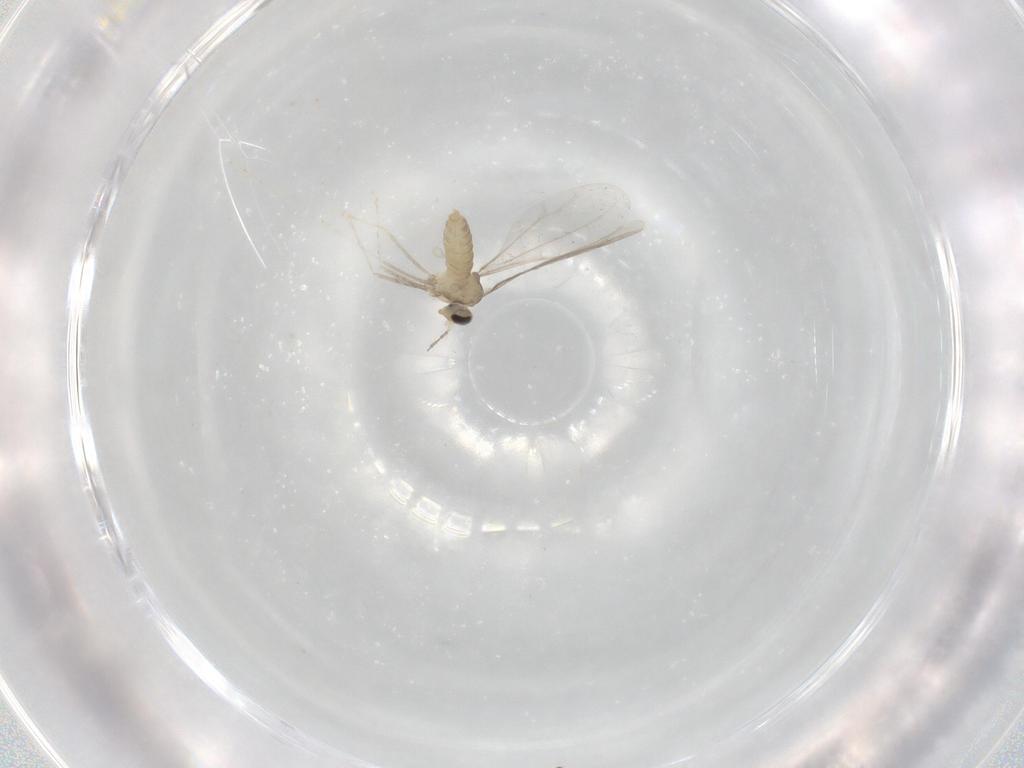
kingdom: Animalia
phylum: Arthropoda
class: Insecta
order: Diptera
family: Cecidomyiidae
